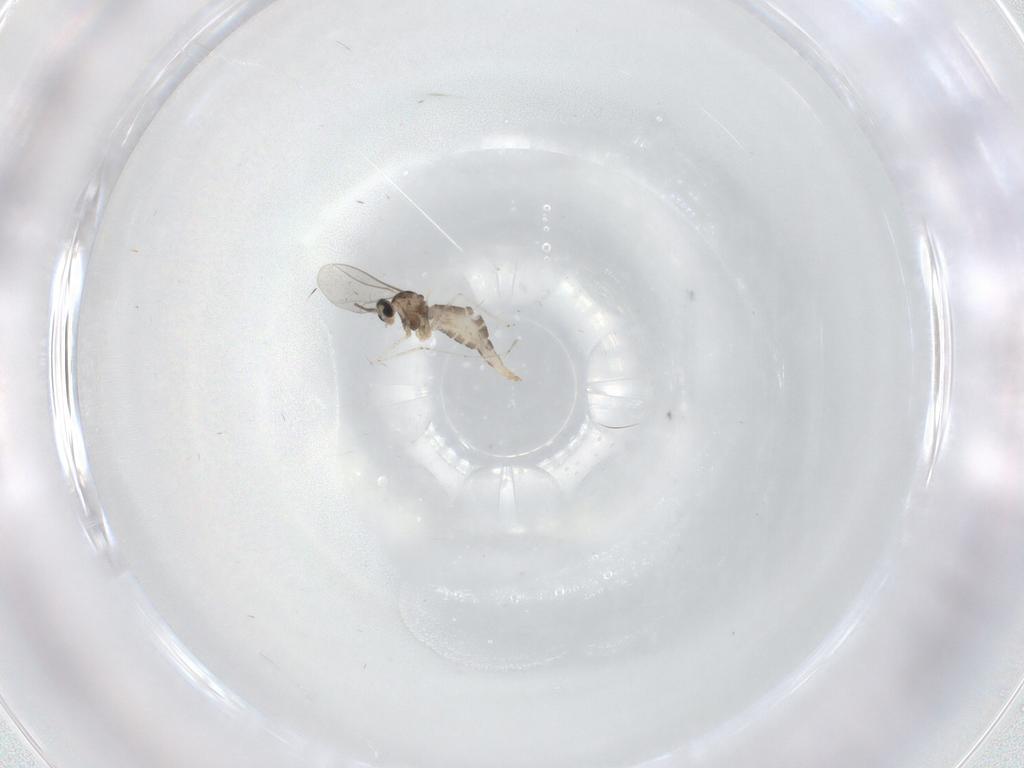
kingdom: Animalia
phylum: Arthropoda
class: Insecta
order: Diptera
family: Cecidomyiidae
